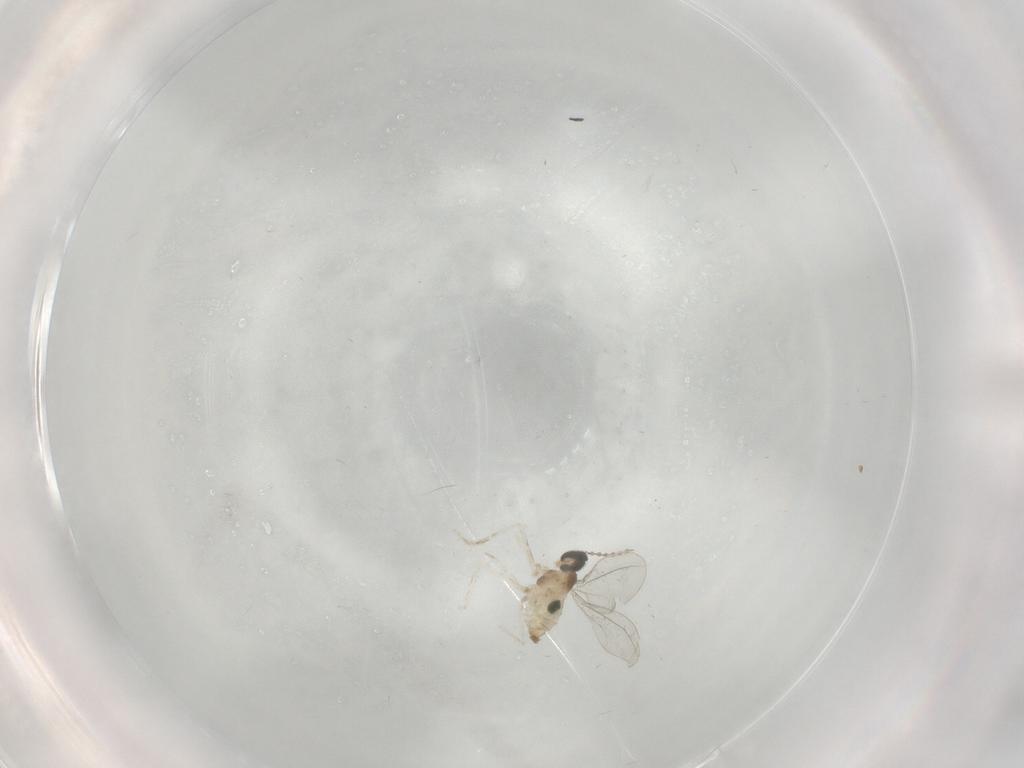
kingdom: Animalia
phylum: Arthropoda
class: Insecta
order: Diptera
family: Cecidomyiidae
